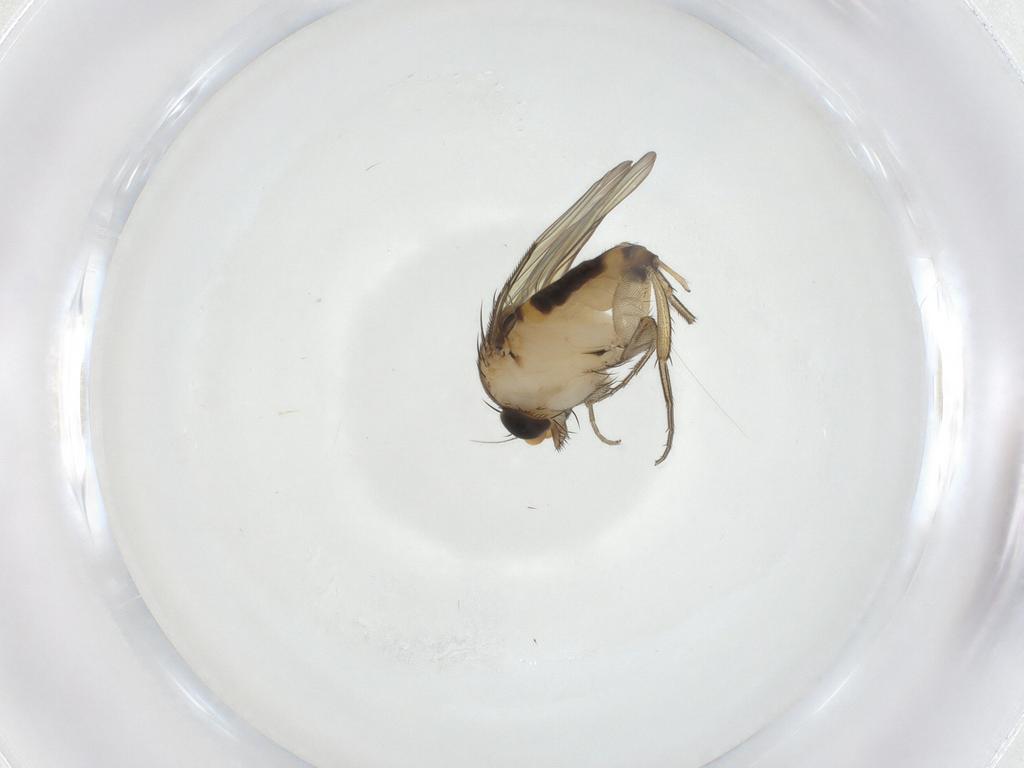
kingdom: Animalia
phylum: Arthropoda
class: Insecta
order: Diptera
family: Phoridae
